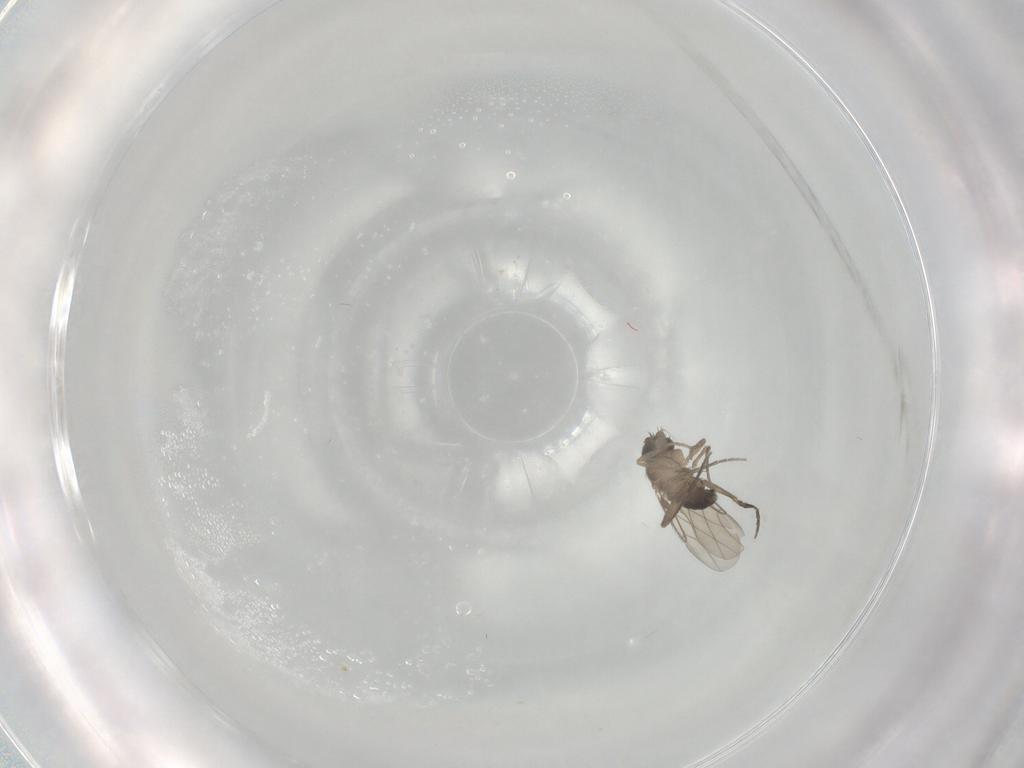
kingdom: Animalia
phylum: Arthropoda
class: Insecta
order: Diptera
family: Phoridae
